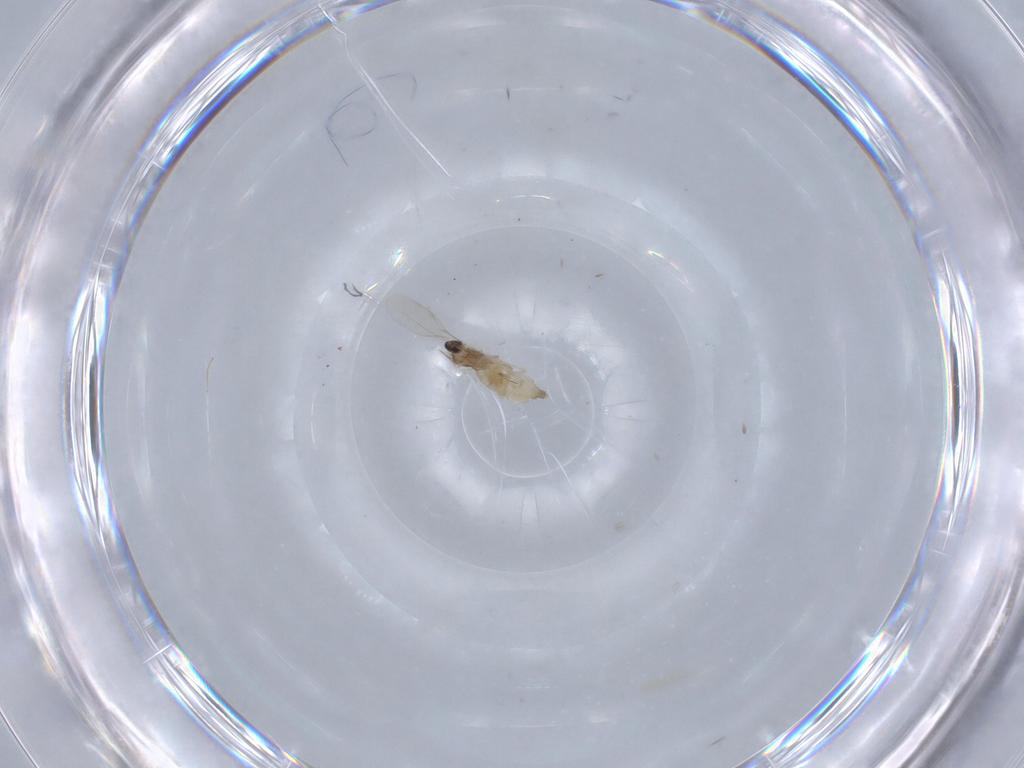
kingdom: Animalia
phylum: Arthropoda
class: Insecta
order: Diptera
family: Cecidomyiidae
